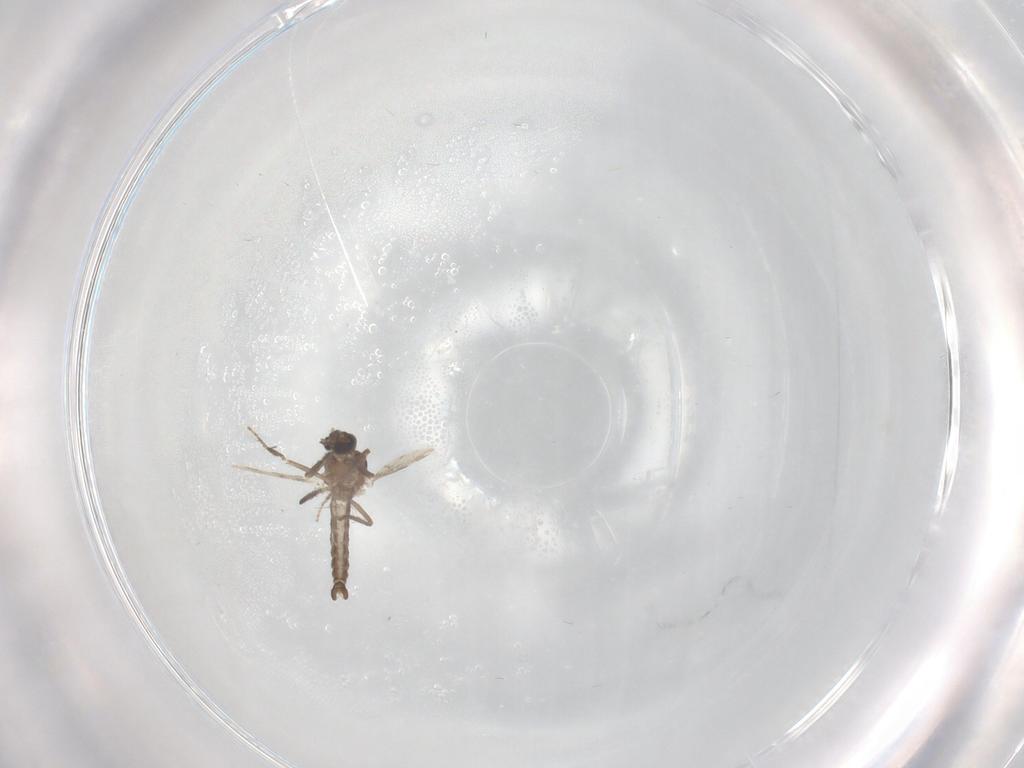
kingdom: Animalia
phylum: Arthropoda
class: Insecta
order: Diptera
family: Ceratopogonidae
